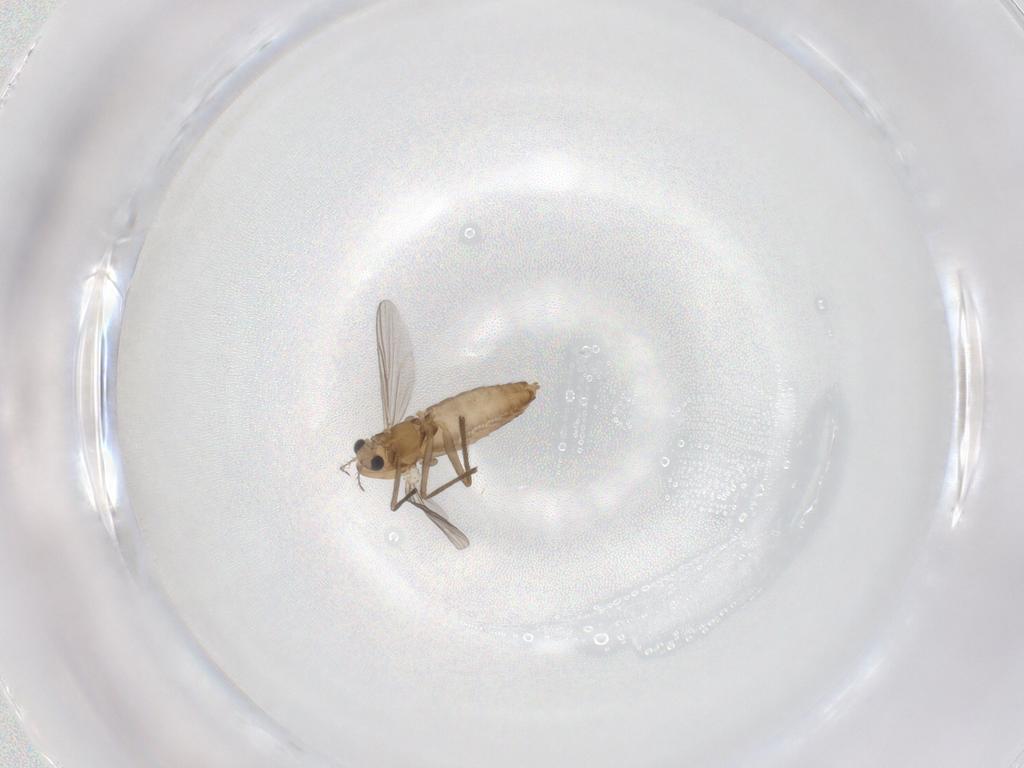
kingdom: Animalia
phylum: Arthropoda
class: Insecta
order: Diptera
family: Chironomidae
